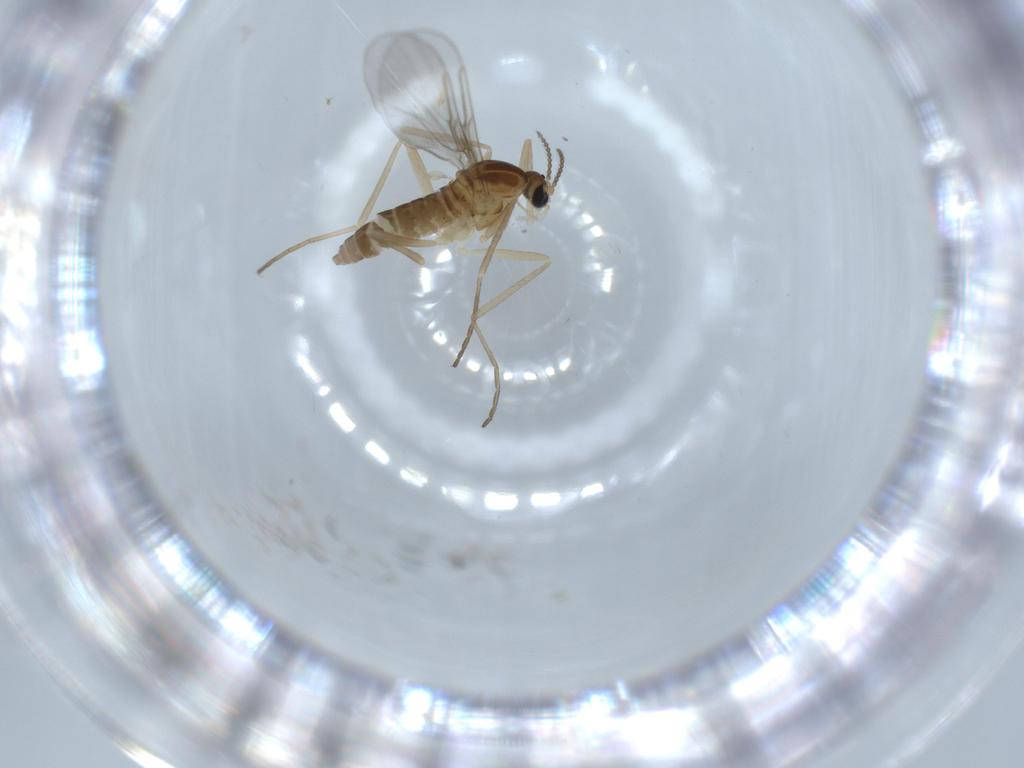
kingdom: Animalia
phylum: Arthropoda
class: Insecta
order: Diptera
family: Cecidomyiidae
